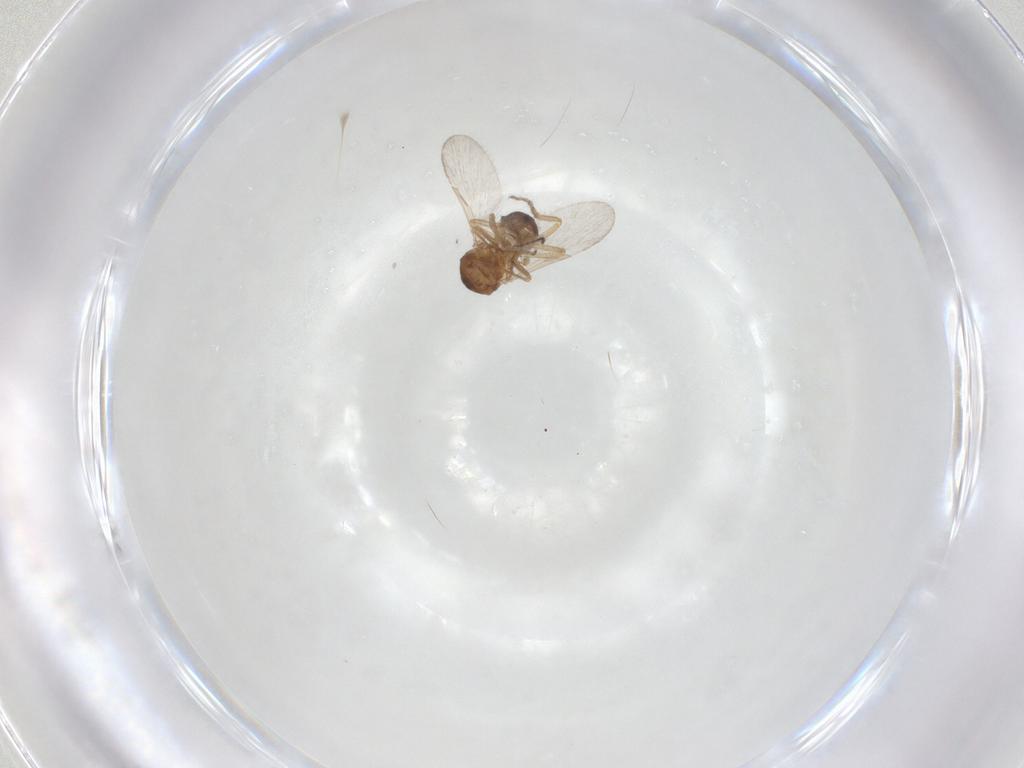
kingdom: Animalia
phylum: Arthropoda
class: Insecta
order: Diptera
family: Ceratopogonidae
